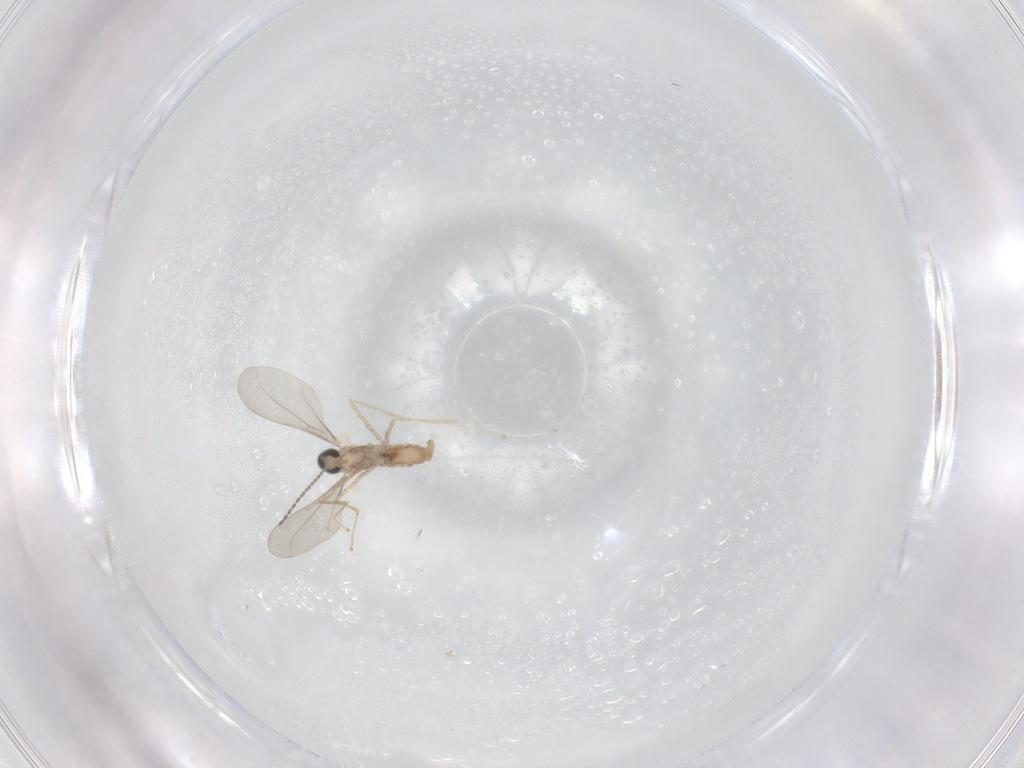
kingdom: Animalia
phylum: Arthropoda
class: Insecta
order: Diptera
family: Cecidomyiidae
